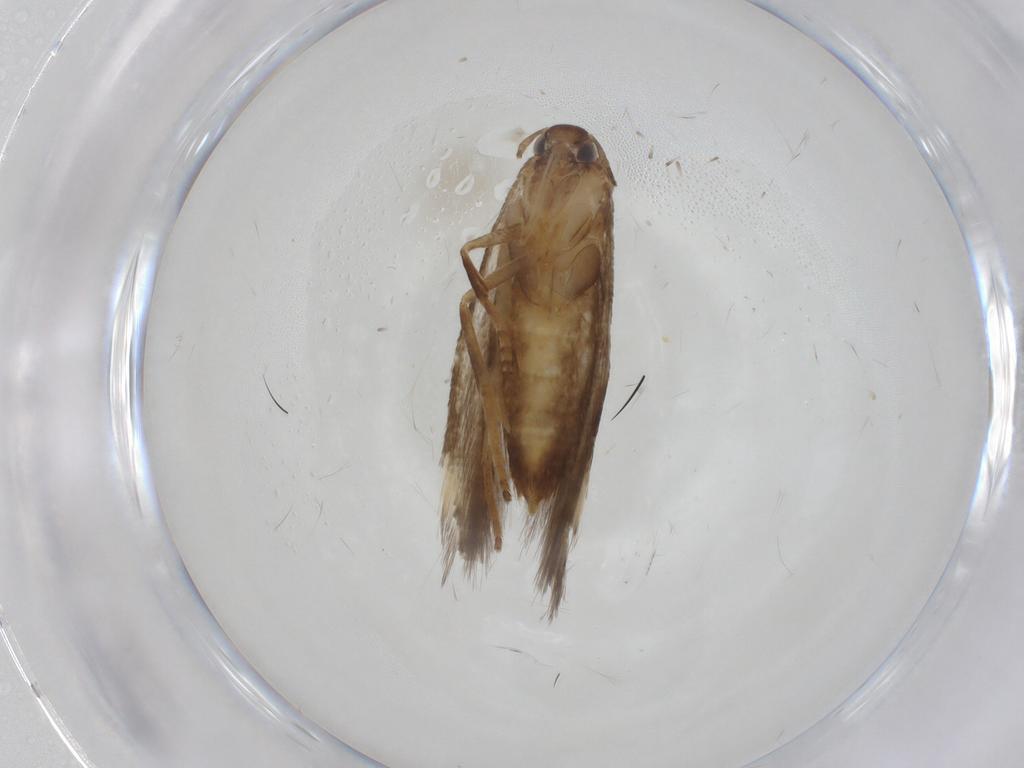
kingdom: Animalia
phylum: Arthropoda
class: Insecta
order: Lepidoptera
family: Gelechiidae
